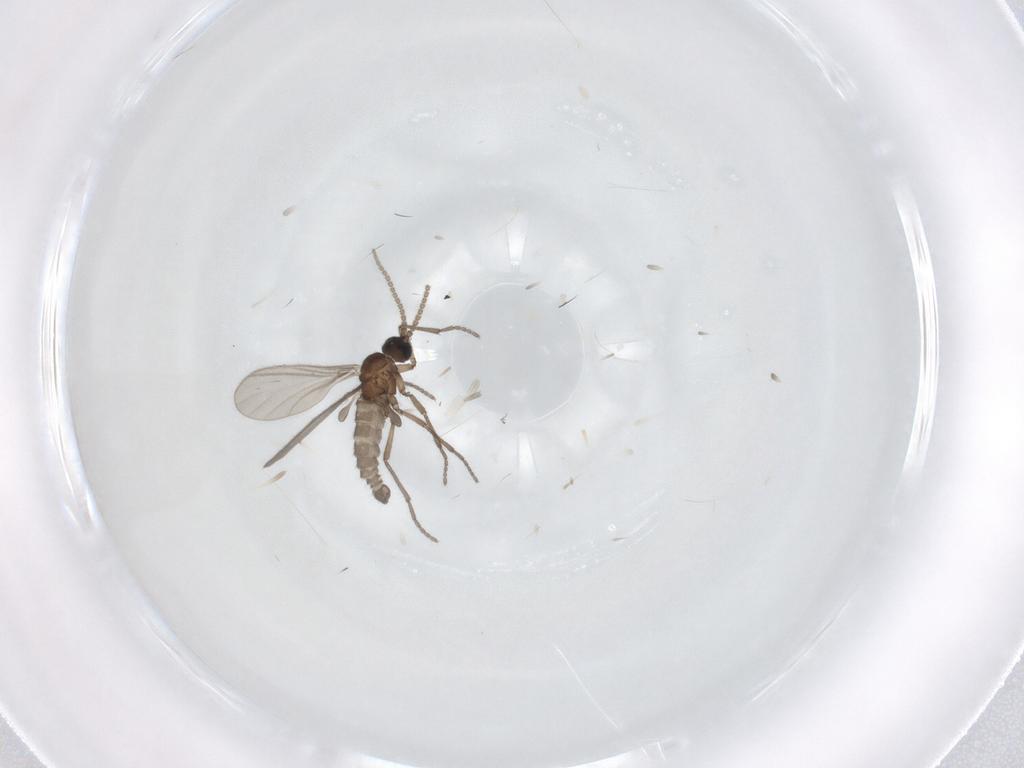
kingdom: Animalia
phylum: Arthropoda
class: Insecta
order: Diptera
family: Sciaridae
